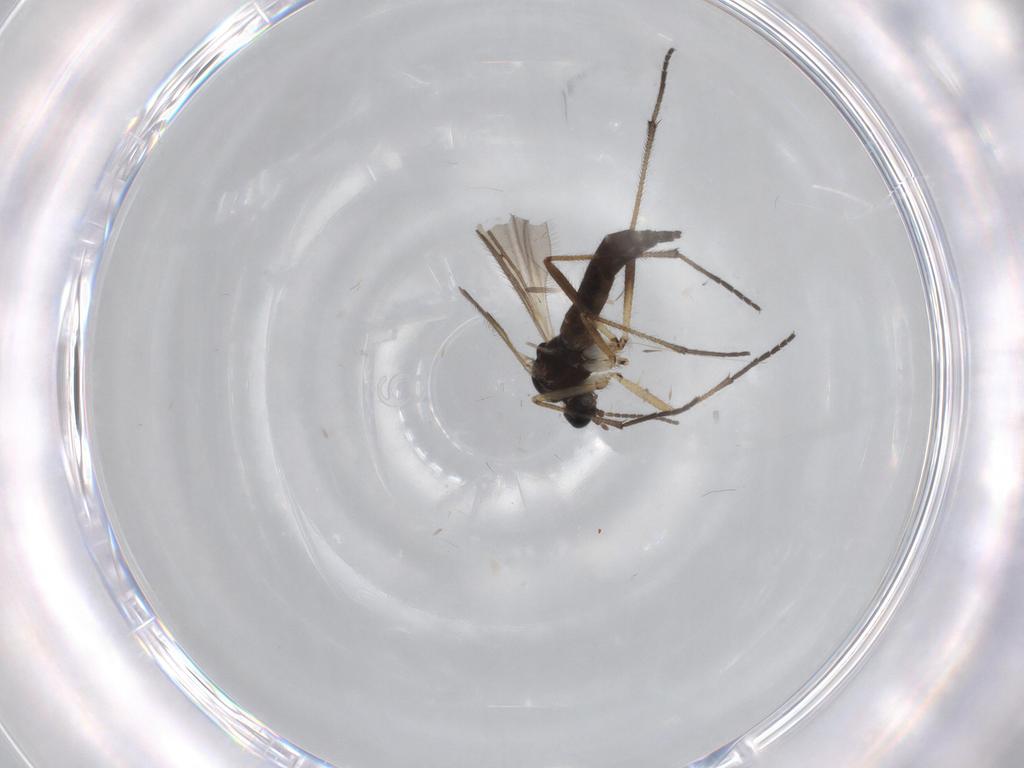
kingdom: Animalia
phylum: Arthropoda
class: Insecta
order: Diptera
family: Sciaridae
